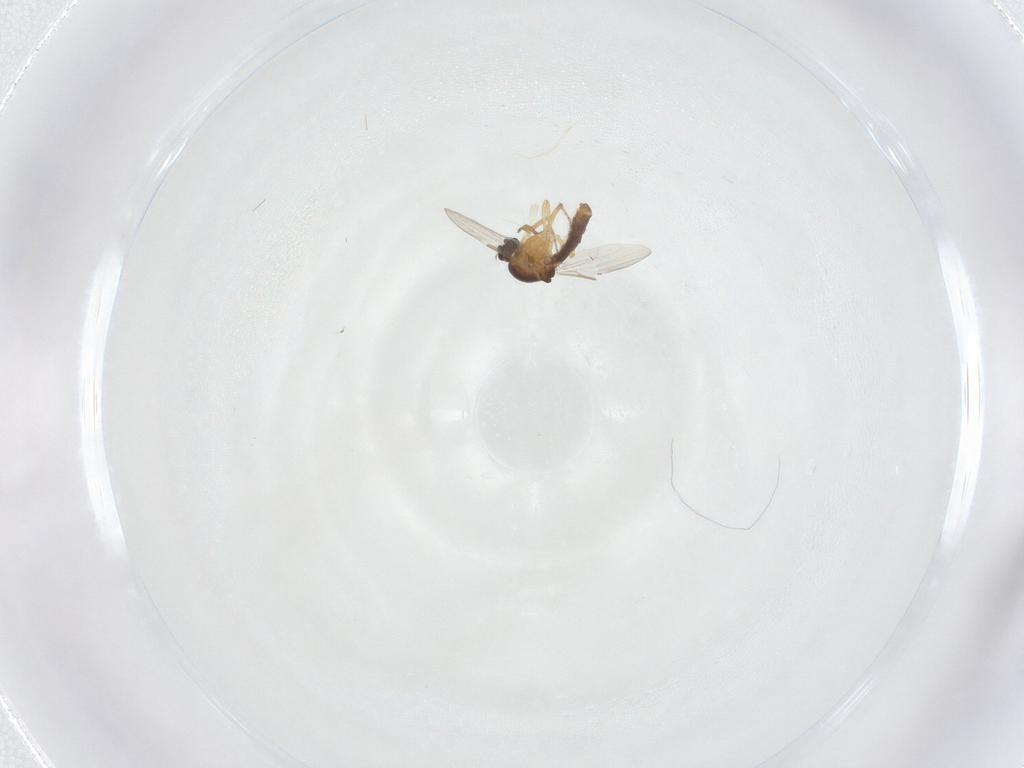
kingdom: Animalia
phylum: Arthropoda
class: Insecta
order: Diptera
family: Ceratopogonidae
